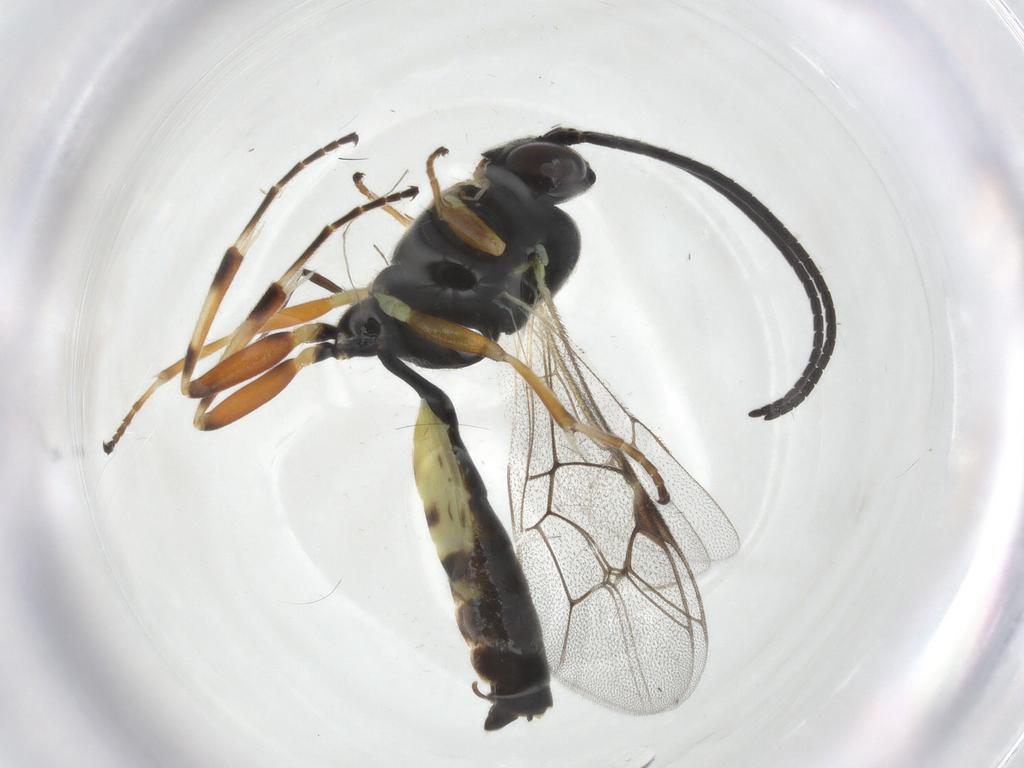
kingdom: Animalia
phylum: Arthropoda
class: Insecta
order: Hymenoptera
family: Ichneumonidae
